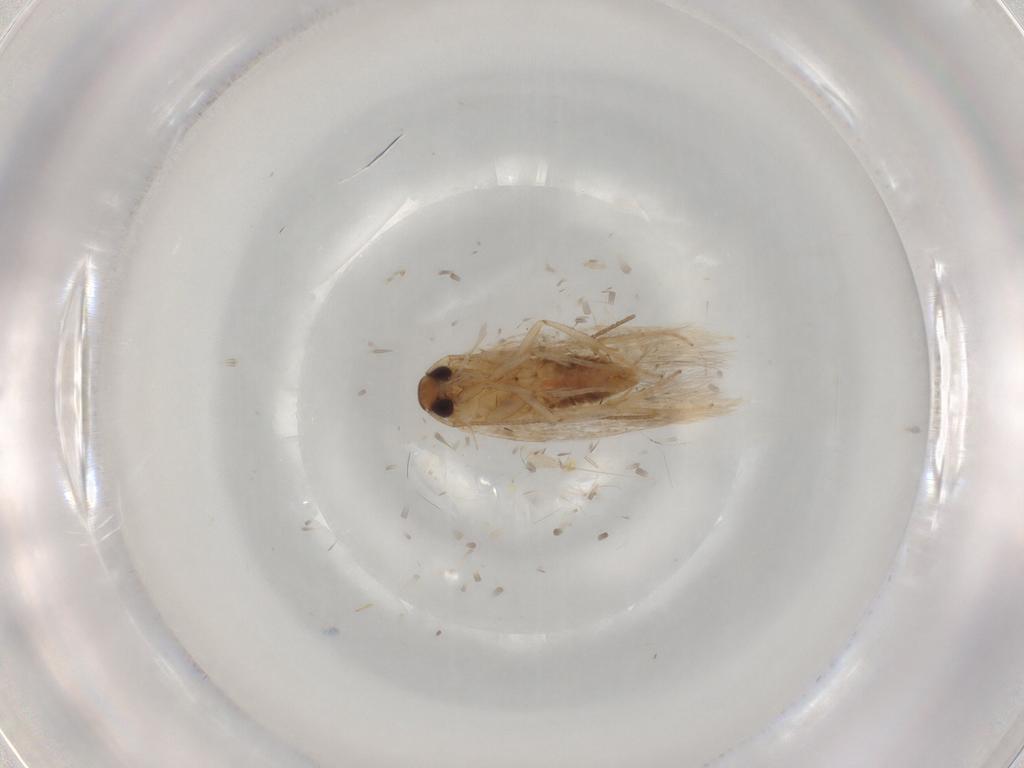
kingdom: Animalia
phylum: Arthropoda
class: Insecta
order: Lepidoptera
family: Cosmopterigidae
